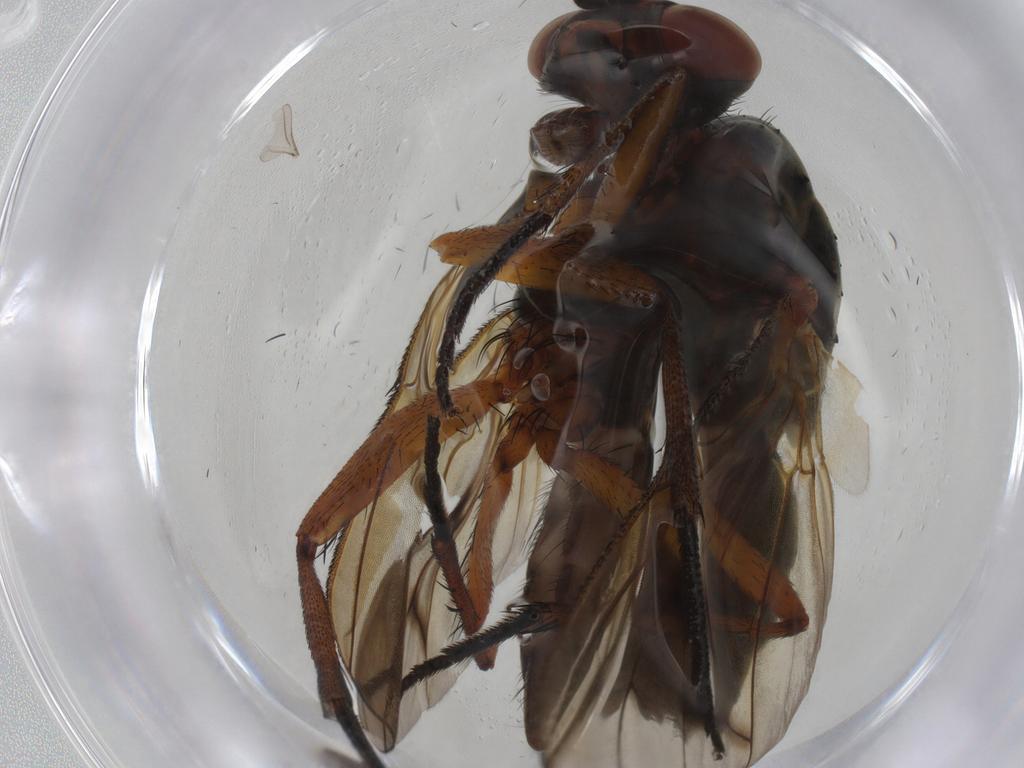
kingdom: Animalia
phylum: Arthropoda
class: Insecta
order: Diptera
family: Anthomyiidae
